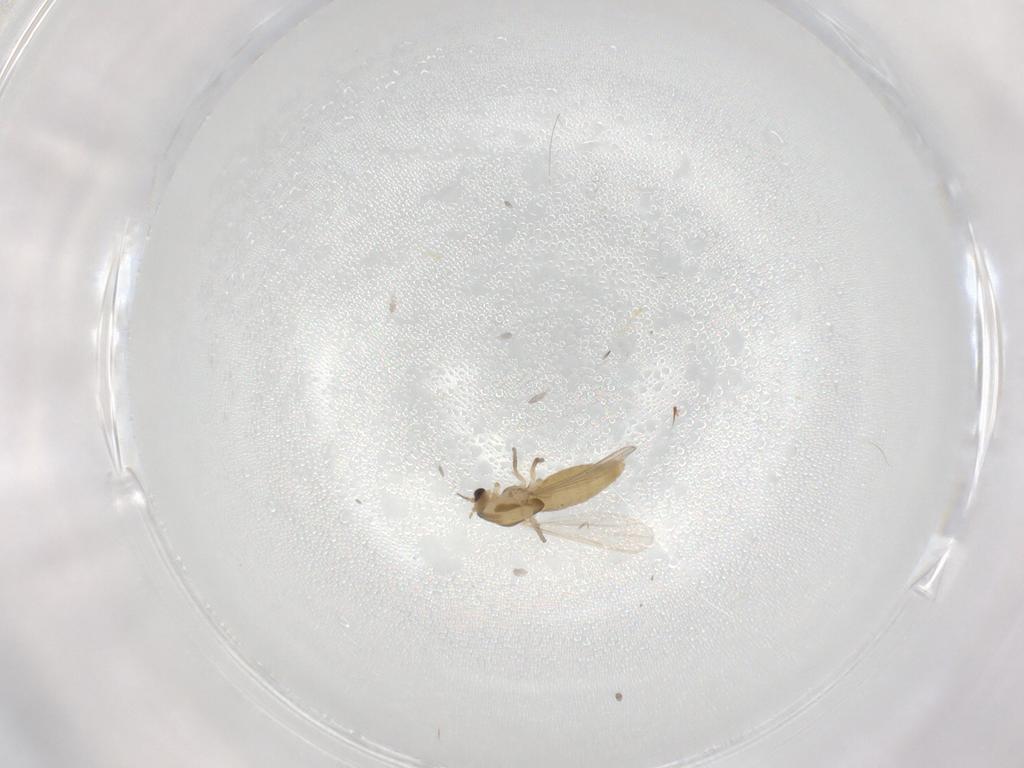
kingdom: Animalia
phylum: Arthropoda
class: Insecta
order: Diptera
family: Chironomidae
